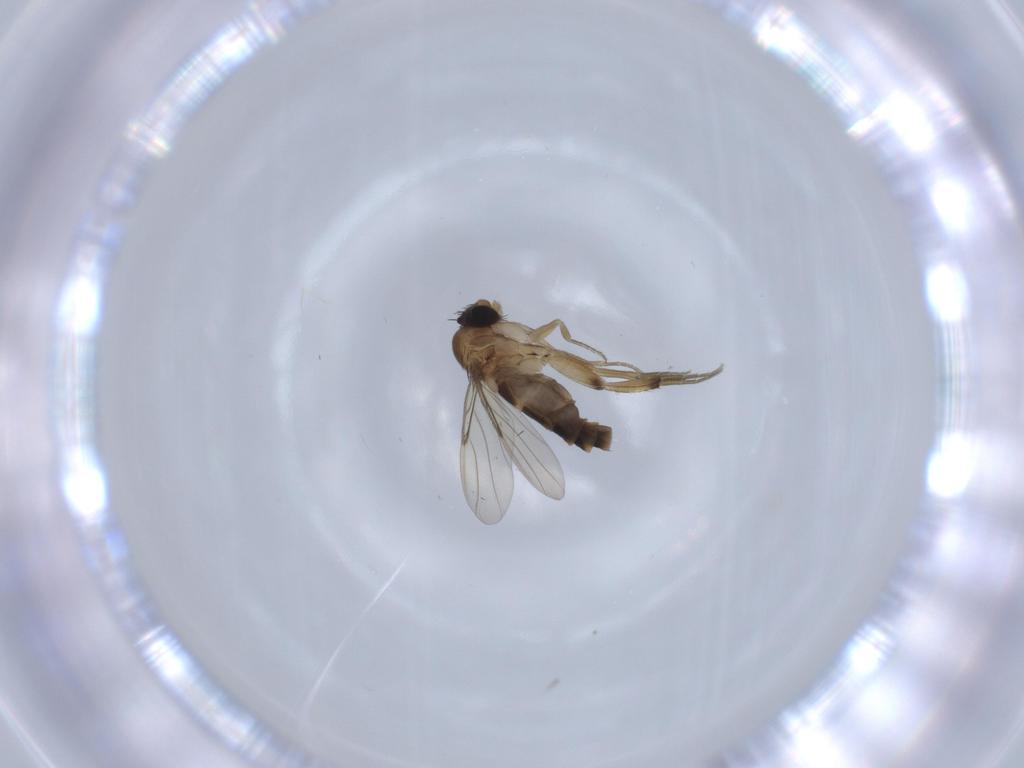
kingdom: Animalia
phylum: Arthropoda
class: Insecta
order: Diptera
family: Phoridae
